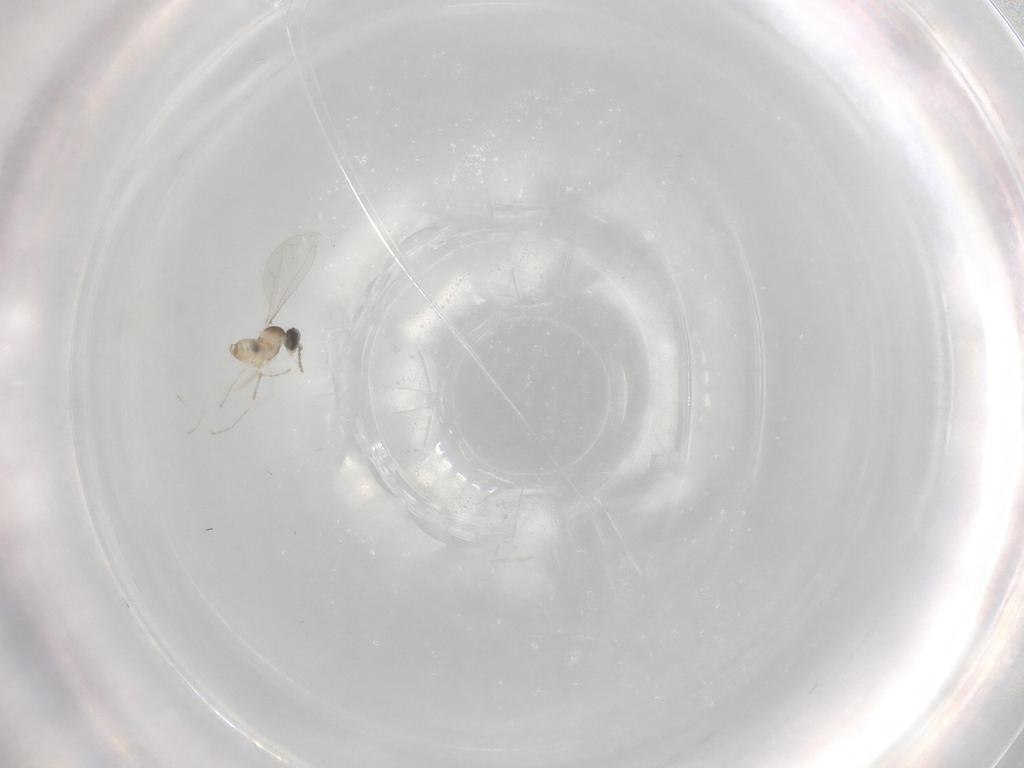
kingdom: Animalia
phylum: Arthropoda
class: Insecta
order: Diptera
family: Cecidomyiidae
